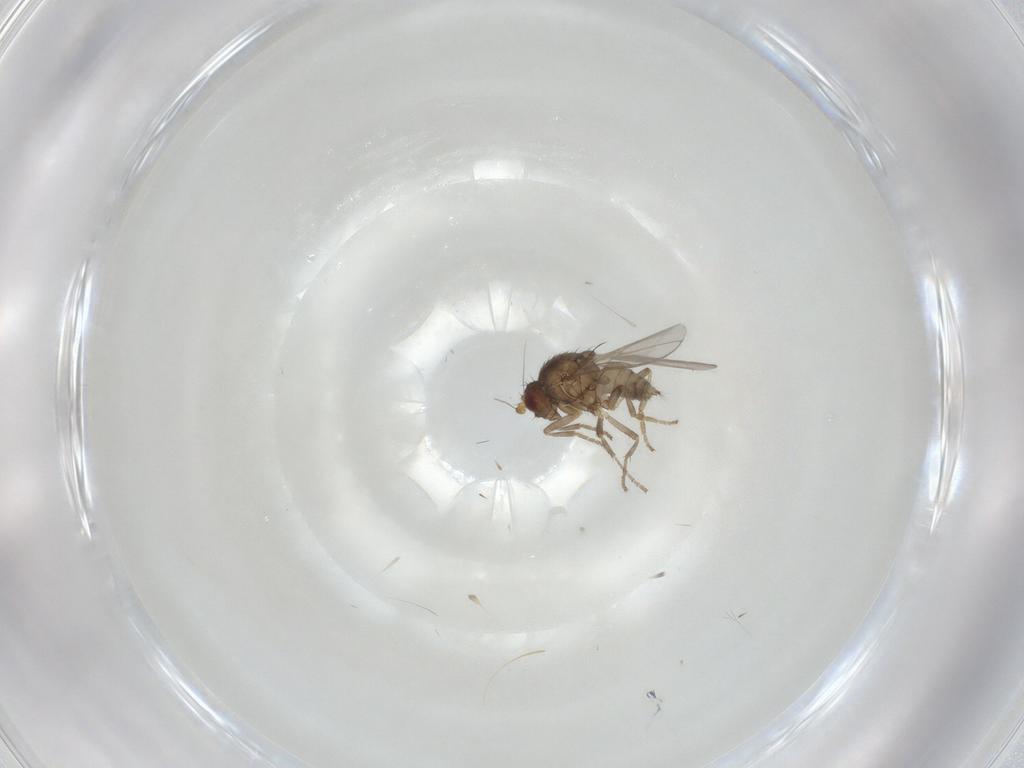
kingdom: Animalia
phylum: Arthropoda
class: Insecta
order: Diptera
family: Sphaeroceridae
